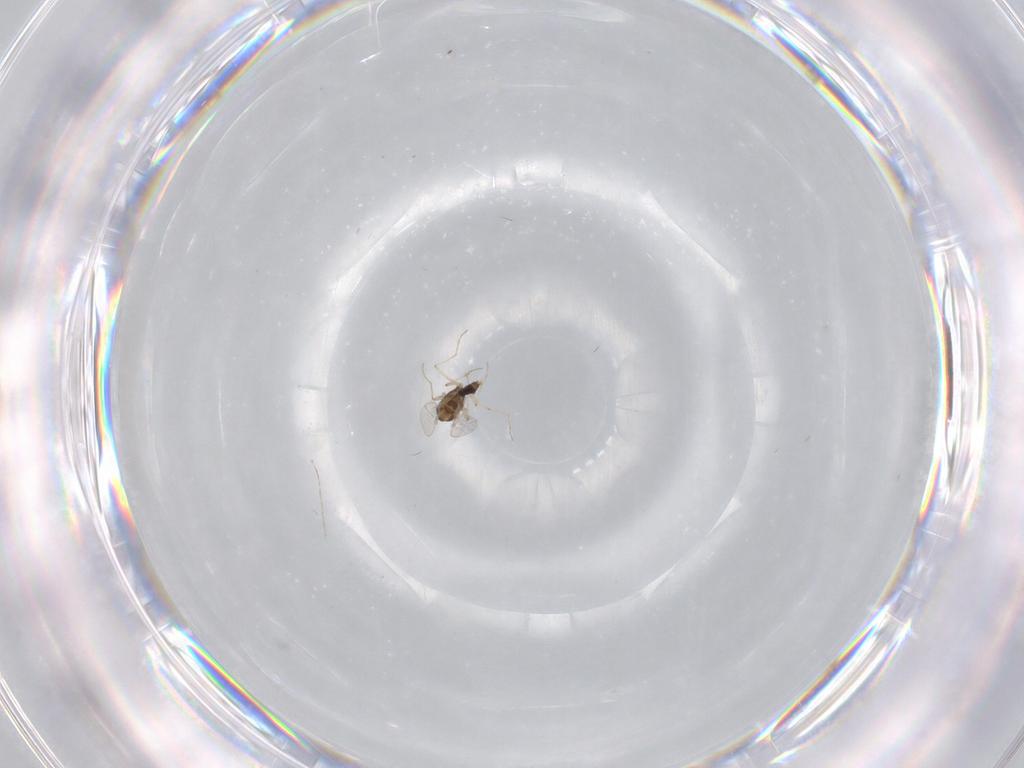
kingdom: Animalia
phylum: Arthropoda
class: Insecta
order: Diptera
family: Chironomidae
